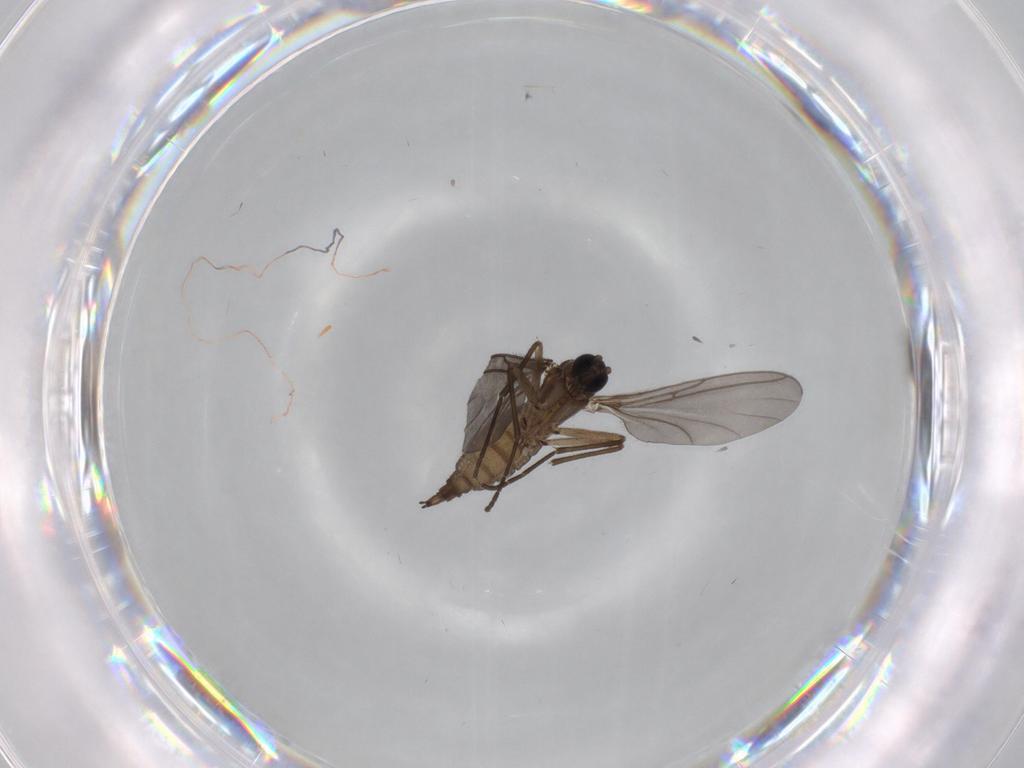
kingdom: Animalia
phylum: Arthropoda
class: Insecta
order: Diptera
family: Sciaridae
